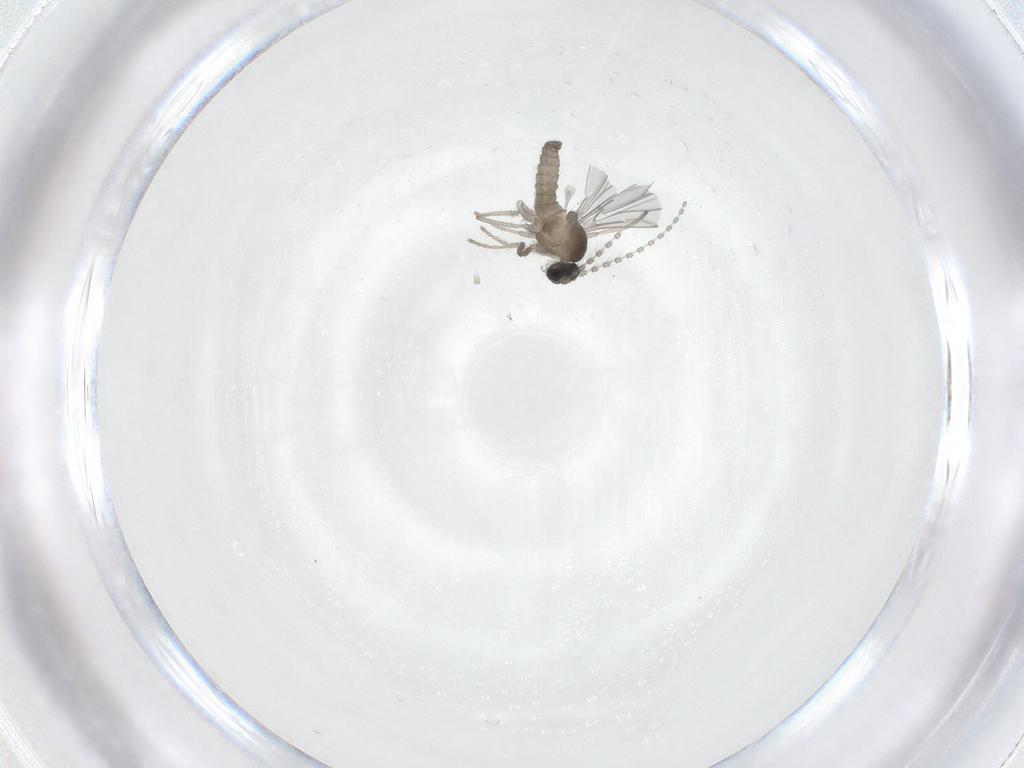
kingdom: Animalia
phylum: Arthropoda
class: Insecta
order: Diptera
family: Cecidomyiidae
